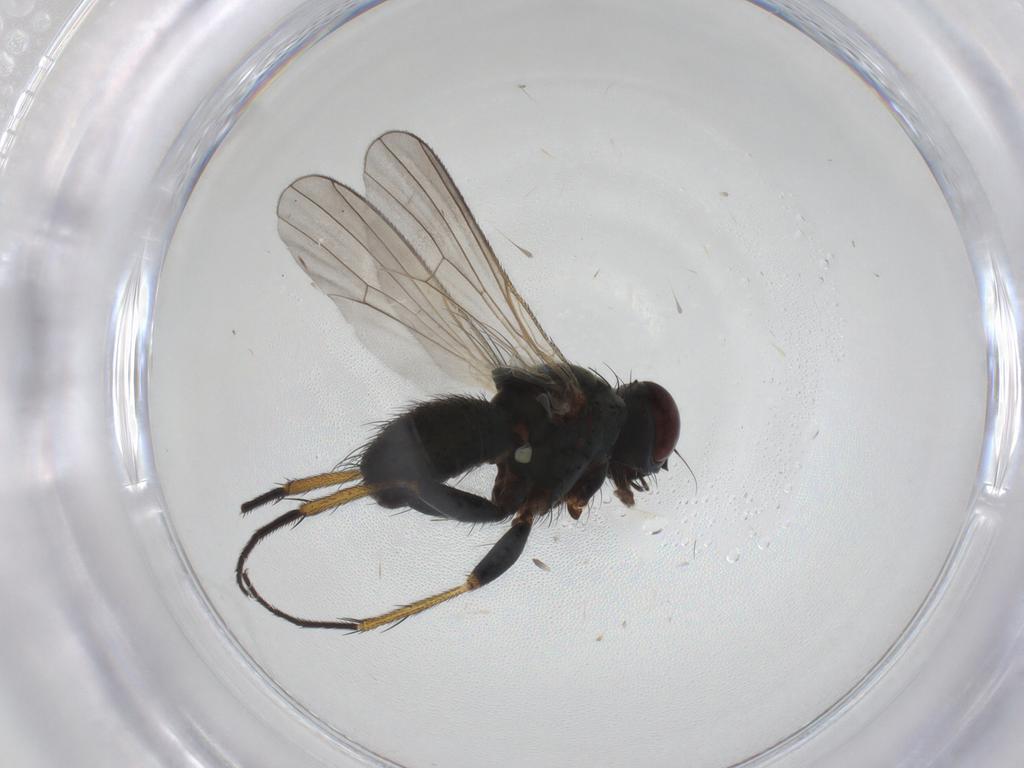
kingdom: Animalia
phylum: Arthropoda
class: Insecta
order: Diptera
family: Muscidae
